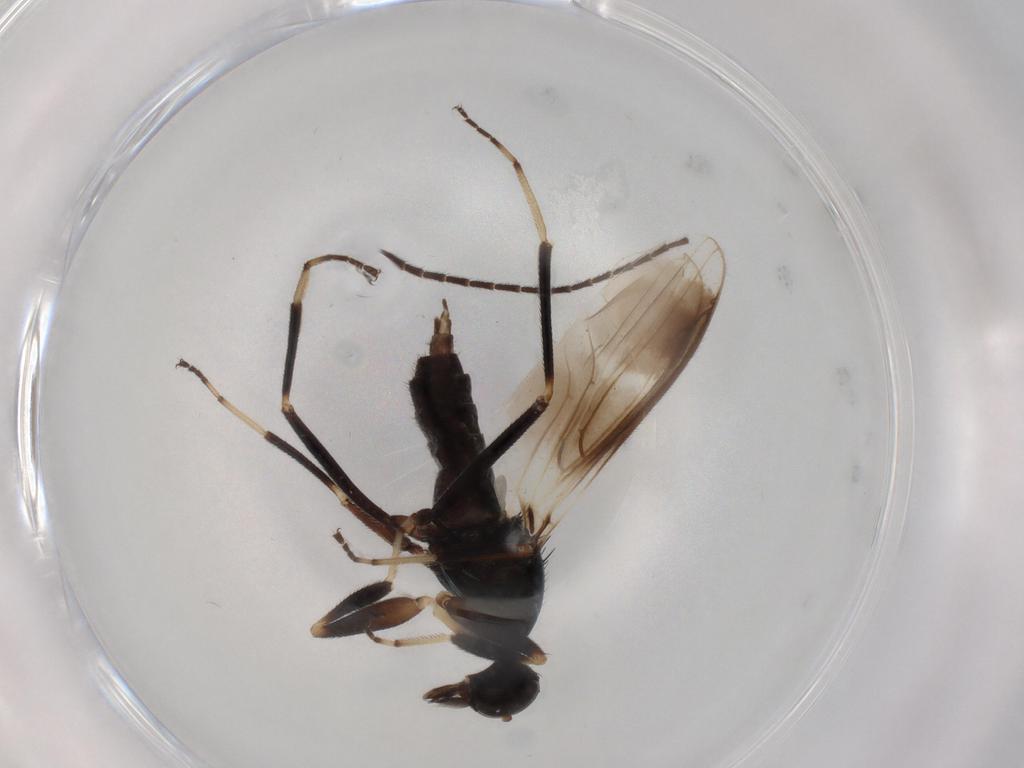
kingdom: Animalia
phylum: Arthropoda
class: Insecta
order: Diptera
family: Hybotidae
